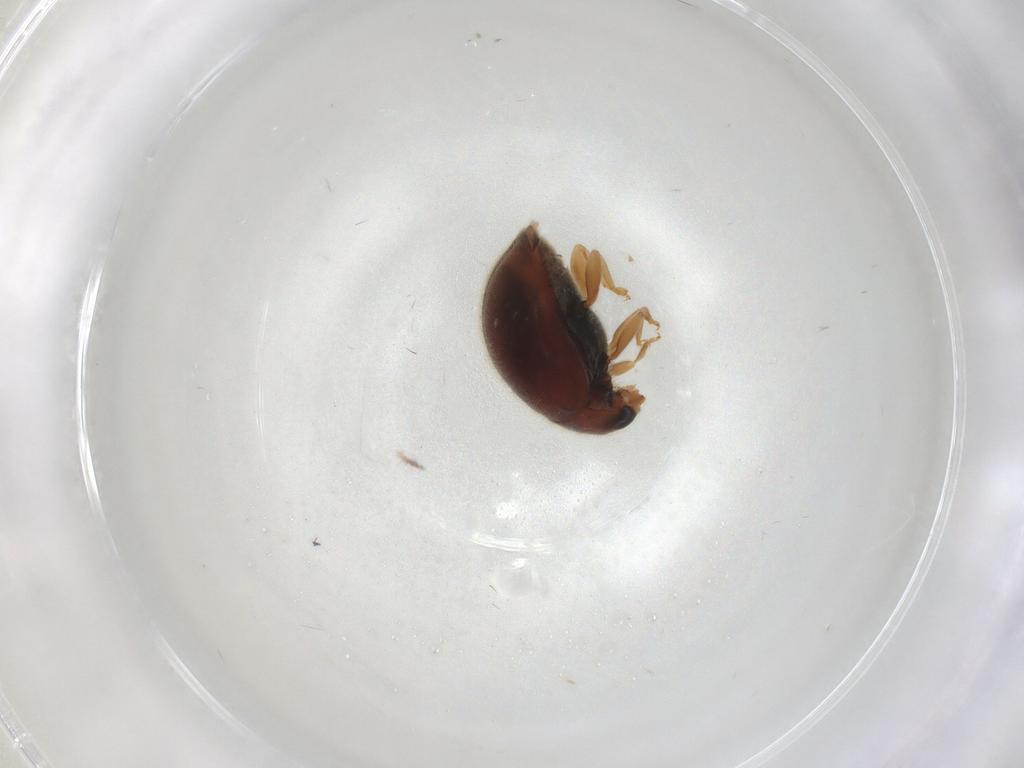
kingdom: Animalia
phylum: Arthropoda
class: Insecta
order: Coleoptera
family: Coccinellidae
